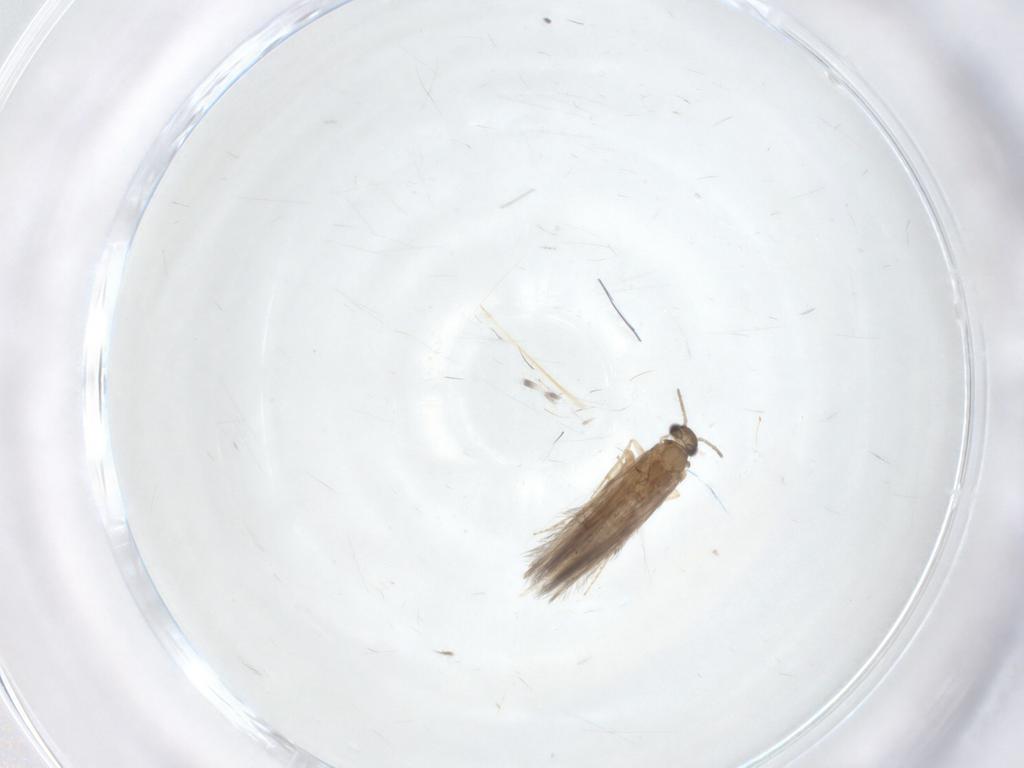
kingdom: Animalia
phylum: Arthropoda
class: Insecta
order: Trichoptera
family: Hydroptilidae
